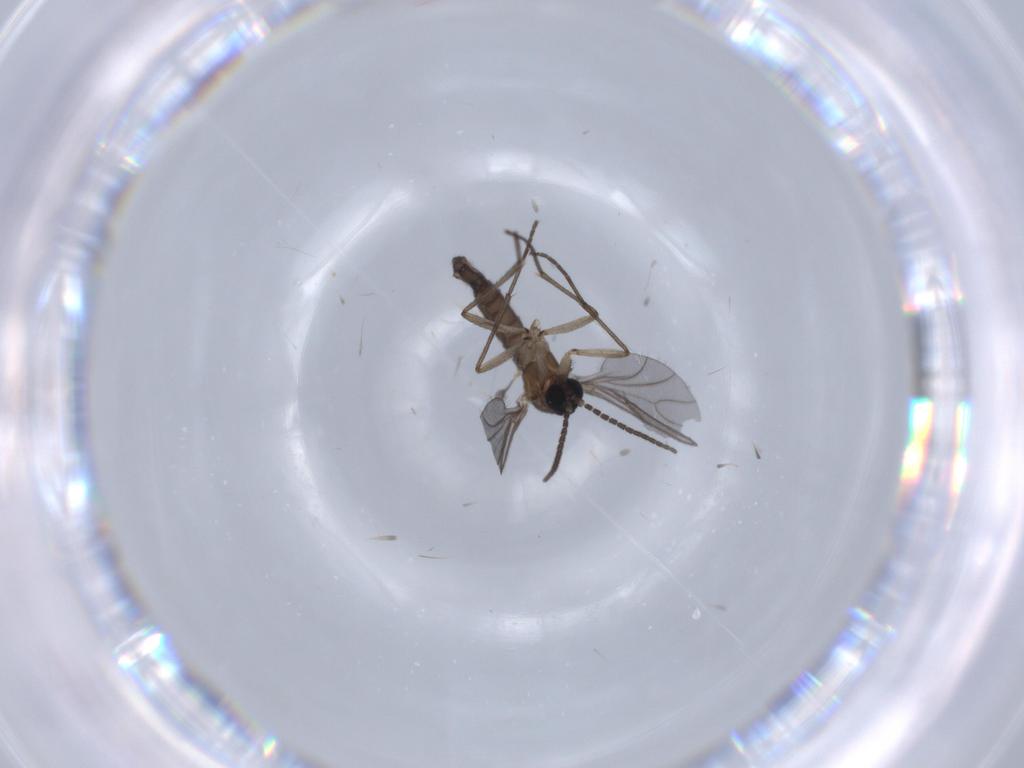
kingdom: Animalia
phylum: Arthropoda
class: Insecta
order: Diptera
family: Sciaridae
